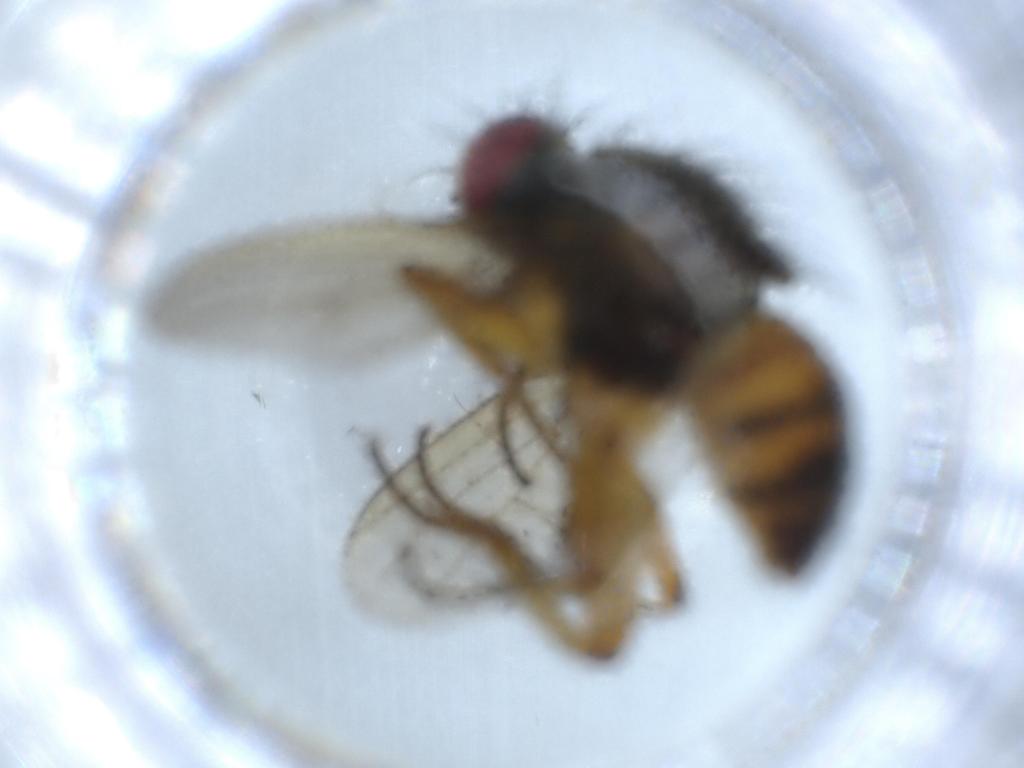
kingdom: Animalia
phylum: Arthropoda
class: Insecta
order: Diptera
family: Muscidae
